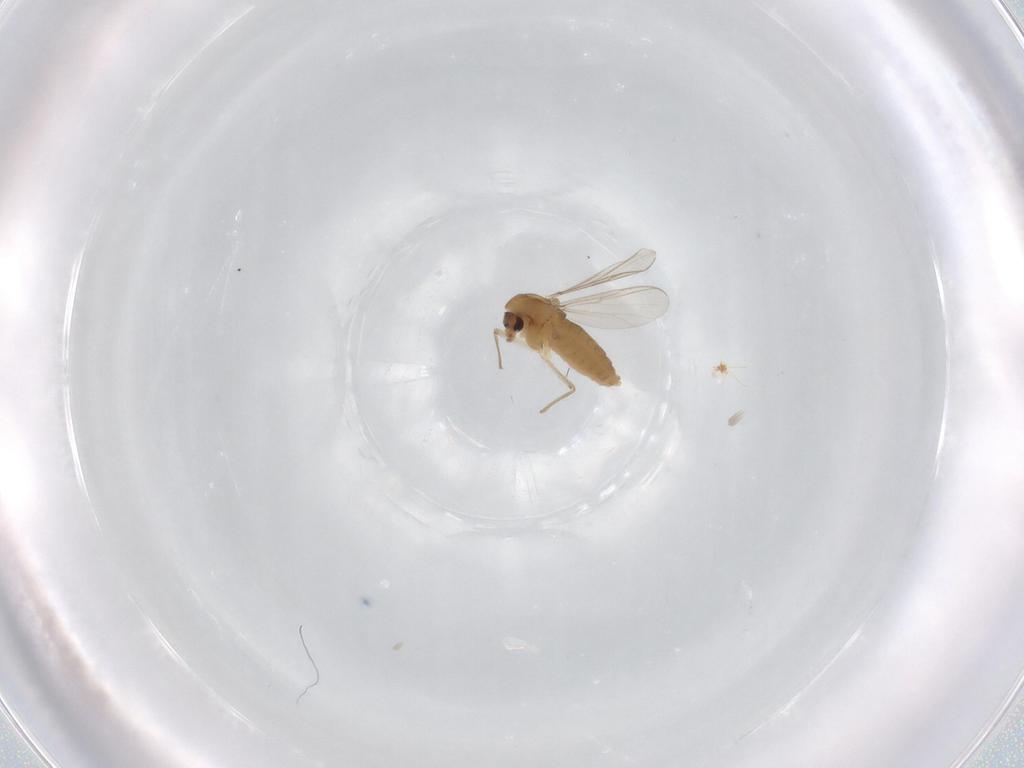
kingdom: Animalia
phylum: Arthropoda
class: Insecta
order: Diptera
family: Chironomidae
